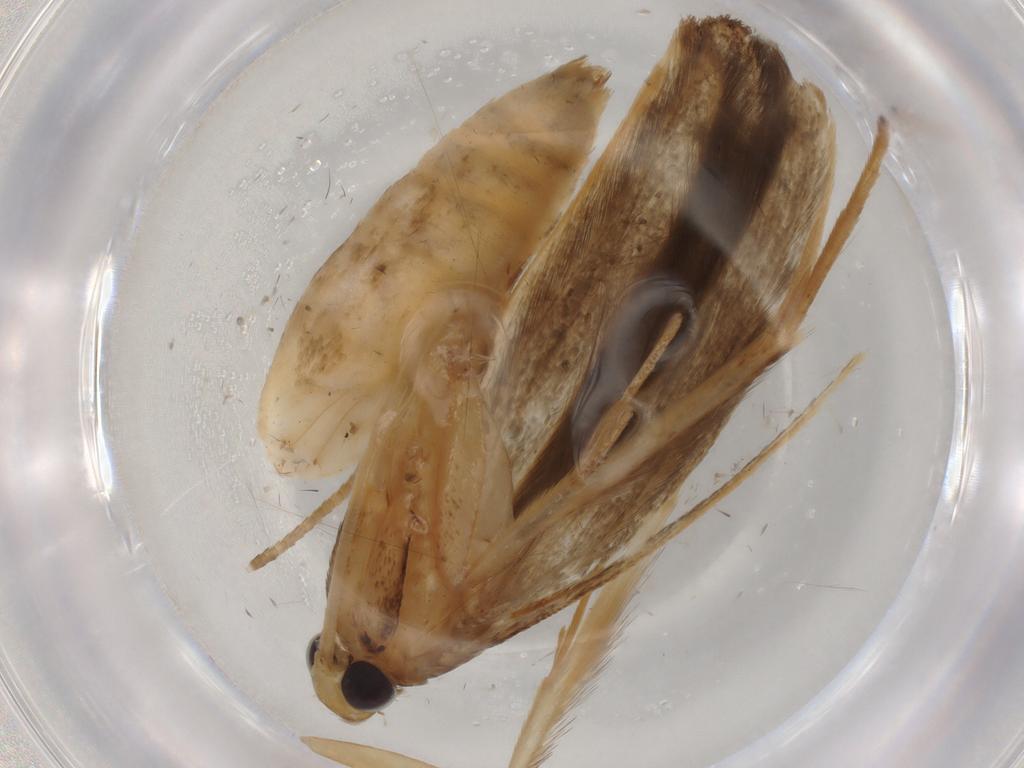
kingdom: Animalia
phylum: Arthropoda
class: Insecta
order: Lepidoptera
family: Coleophoridae
